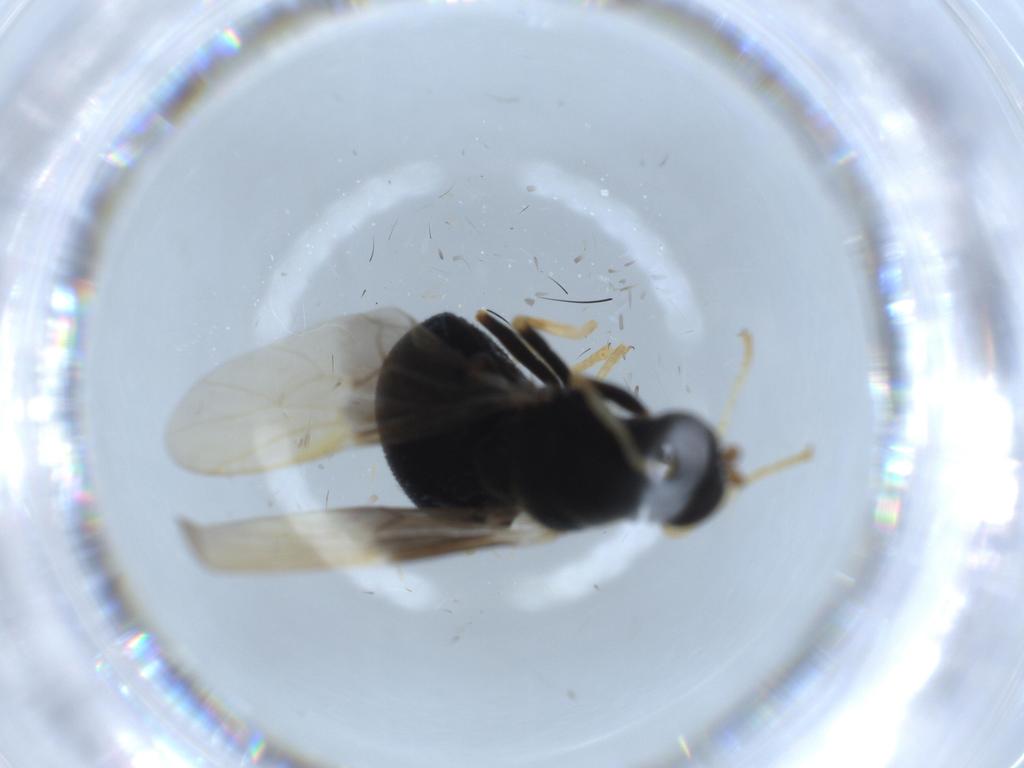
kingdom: Animalia
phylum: Arthropoda
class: Insecta
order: Diptera
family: Stratiomyidae
